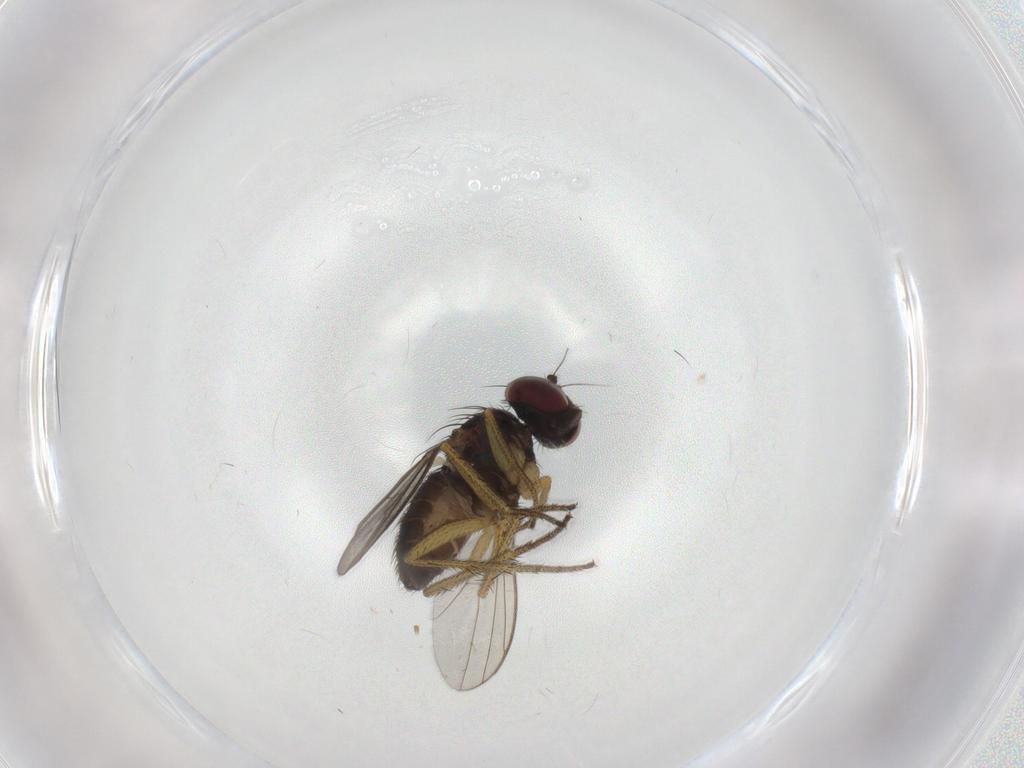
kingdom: Animalia
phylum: Arthropoda
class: Insecta
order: Diptera
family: Dolichopodidae
